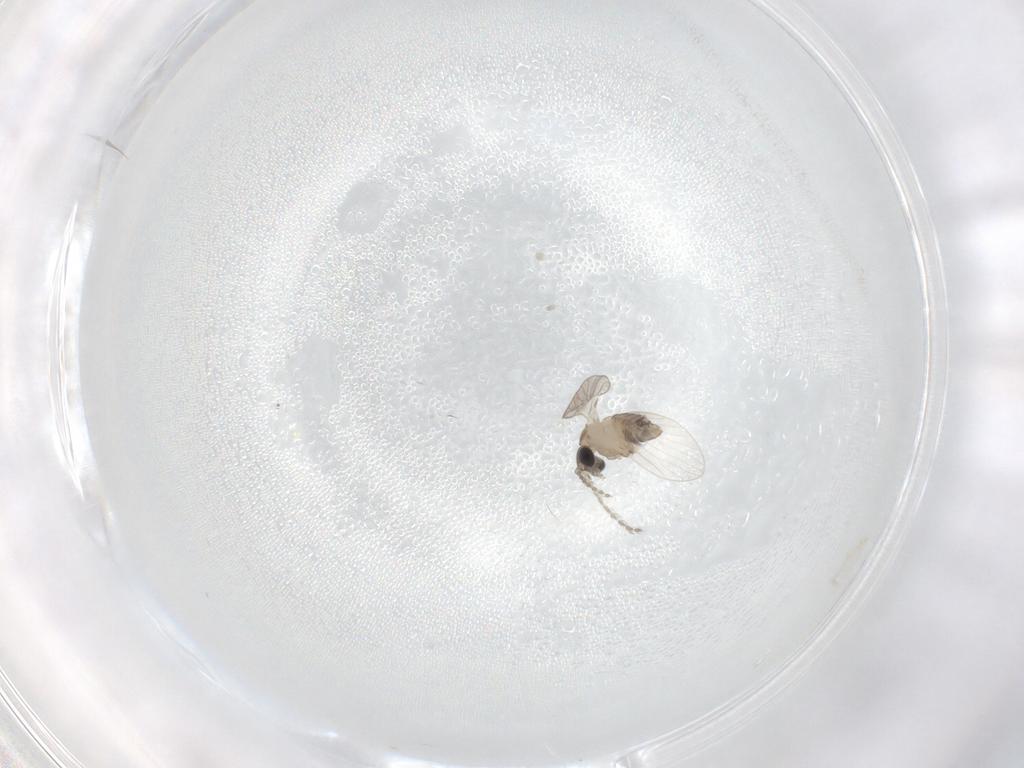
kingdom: Animalia
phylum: Arthropoda
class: Insecta
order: Diptera
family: Psychodidae
